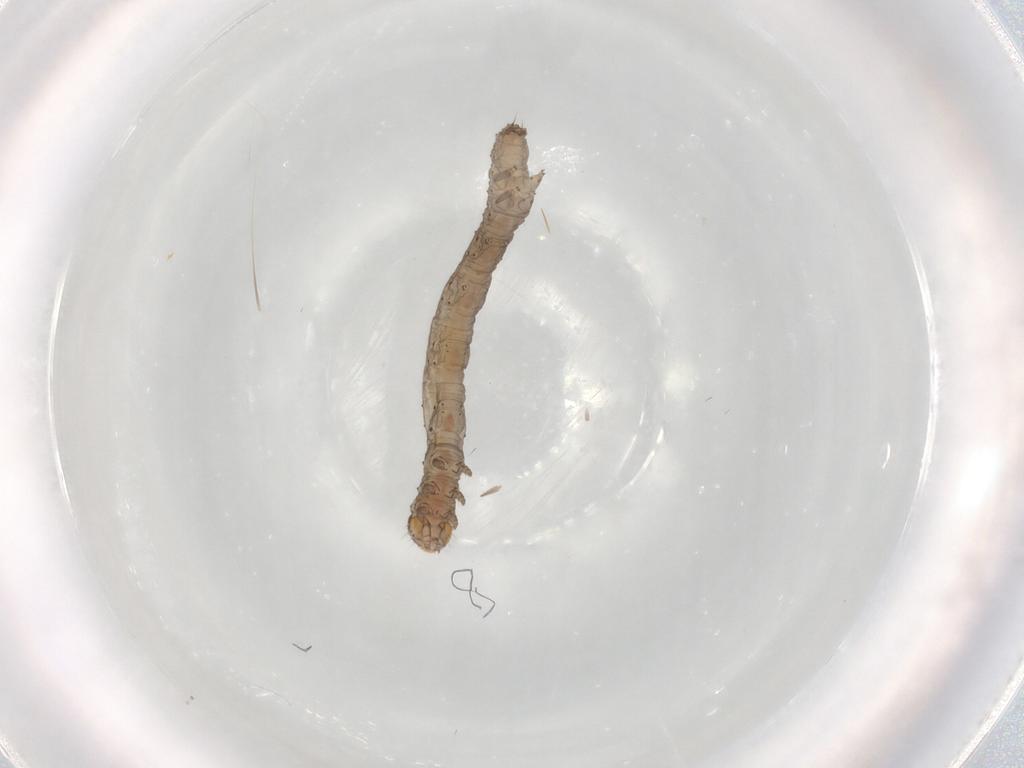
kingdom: Animalia
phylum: Arthropoda
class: Insecta
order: Lepidoptera
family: Erebidae
